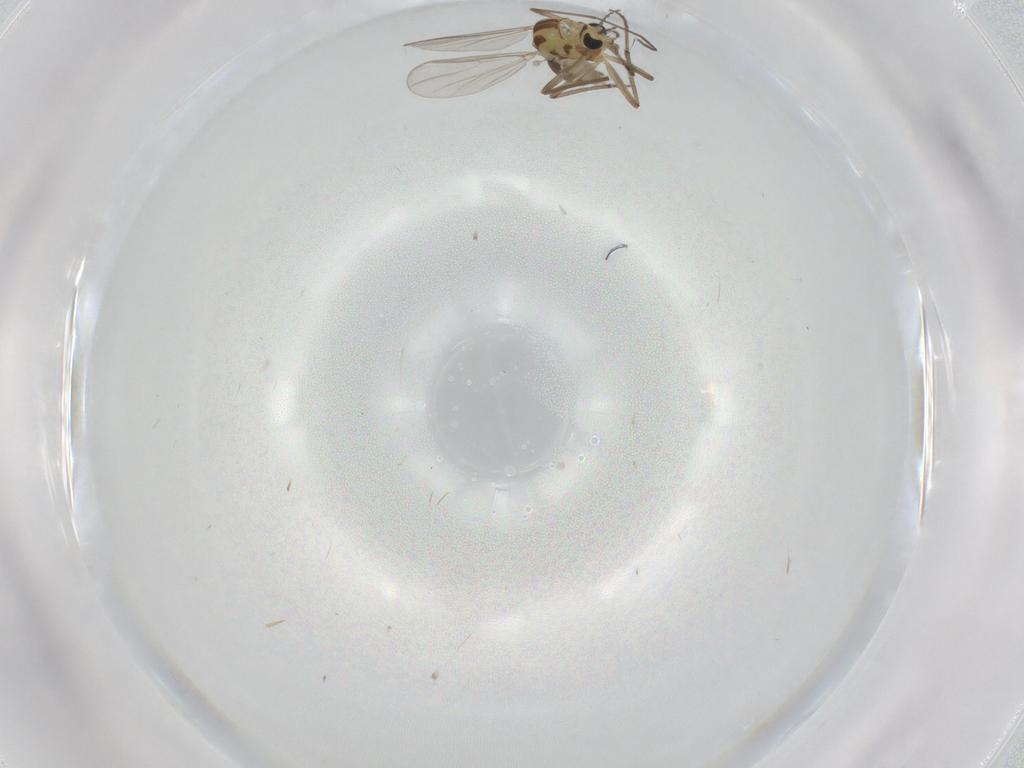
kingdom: Animalia
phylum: Arthropoda
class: Insecta
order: Diptera
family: Chironomidae
